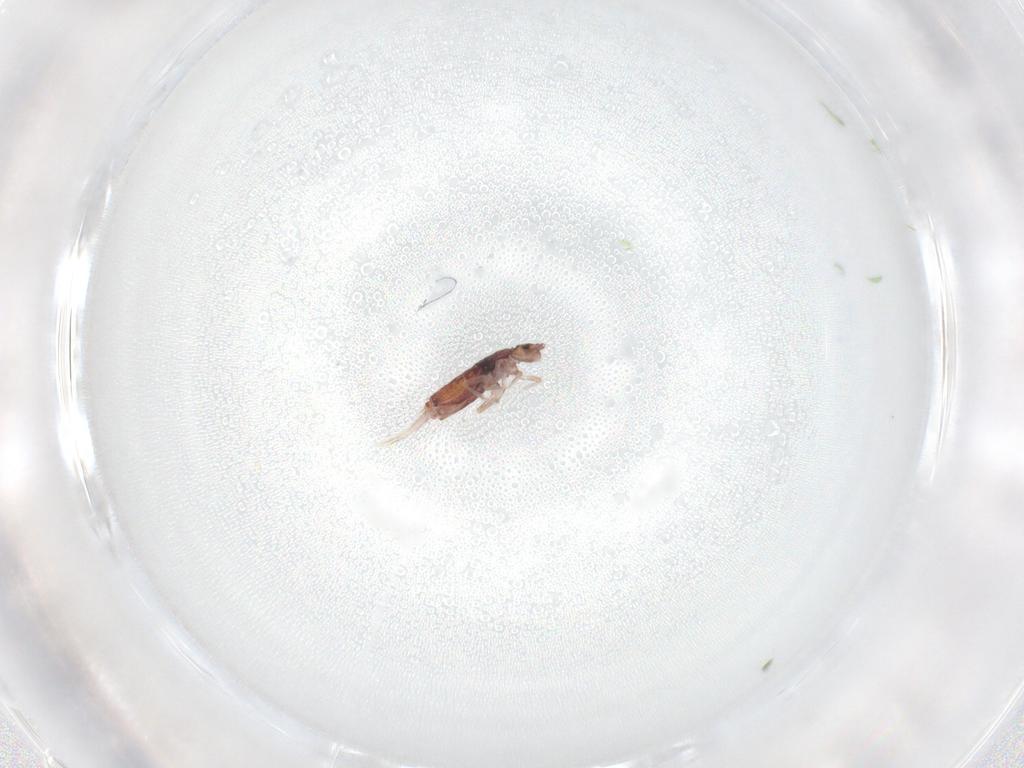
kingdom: Animalia
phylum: Arthropoda
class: Collembola
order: Entomobryomorpha
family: Entomobryidae
